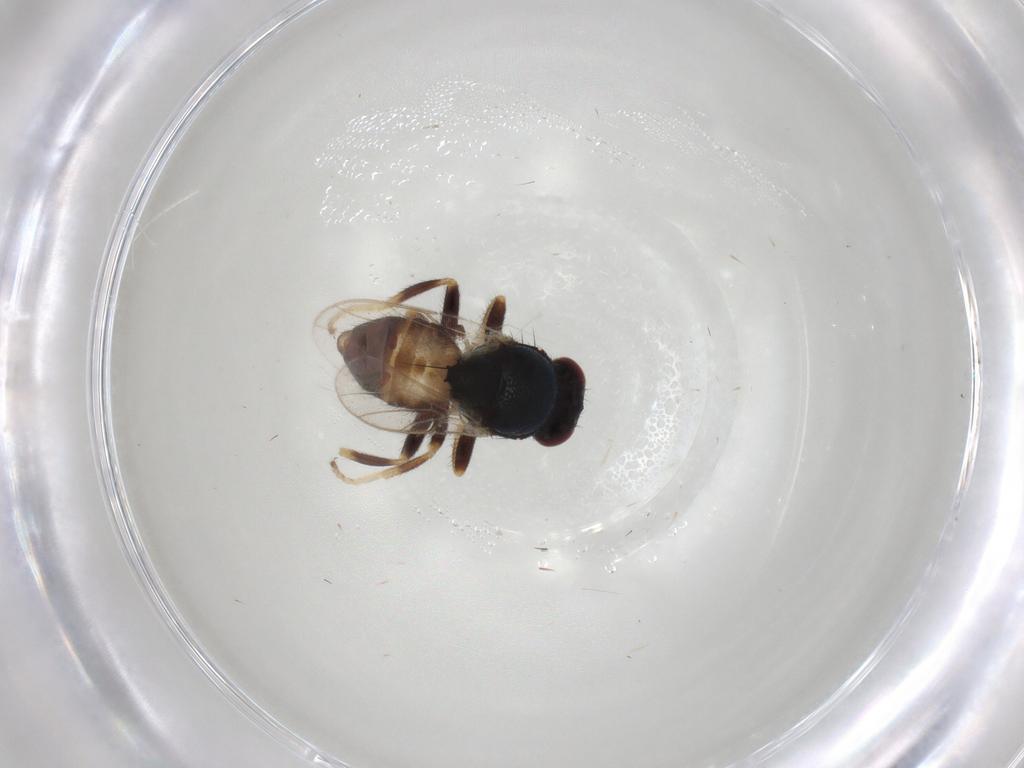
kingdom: Animalia
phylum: Arthropoda
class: Insecta
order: Diptera
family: Chloropidae
